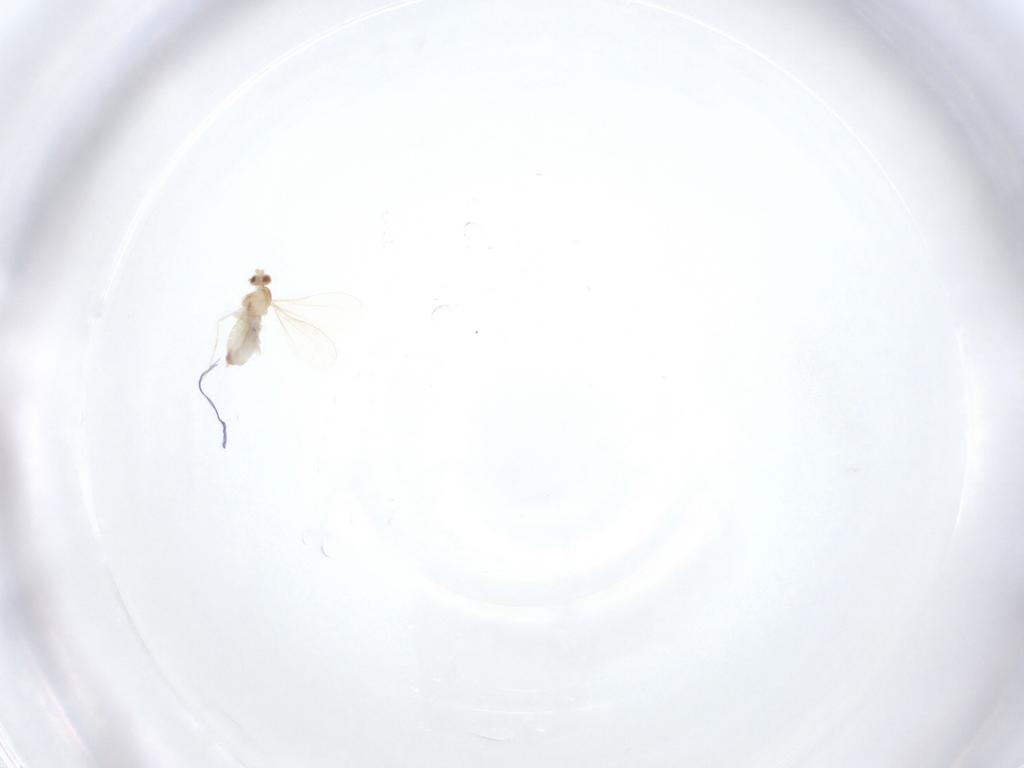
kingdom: Animalia
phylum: Arthropoda
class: Insecta
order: Diptera
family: Cecidomyiidae
